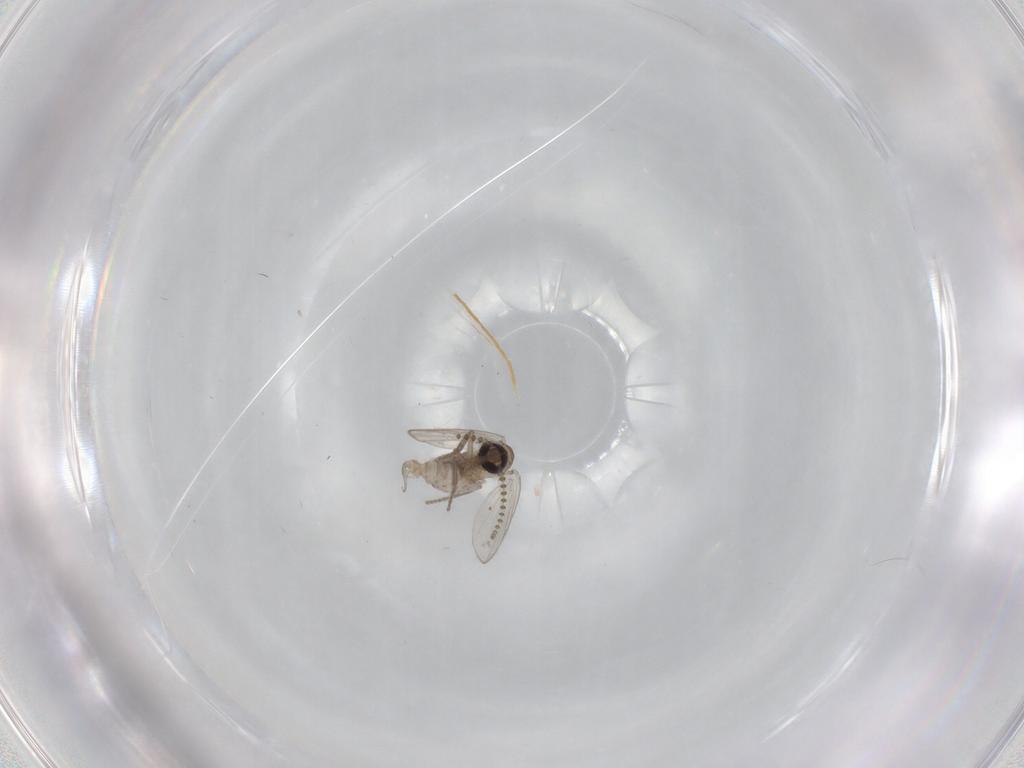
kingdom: Animalia
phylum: Arthropoda
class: Insecta
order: Diptera
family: Psychodidae
